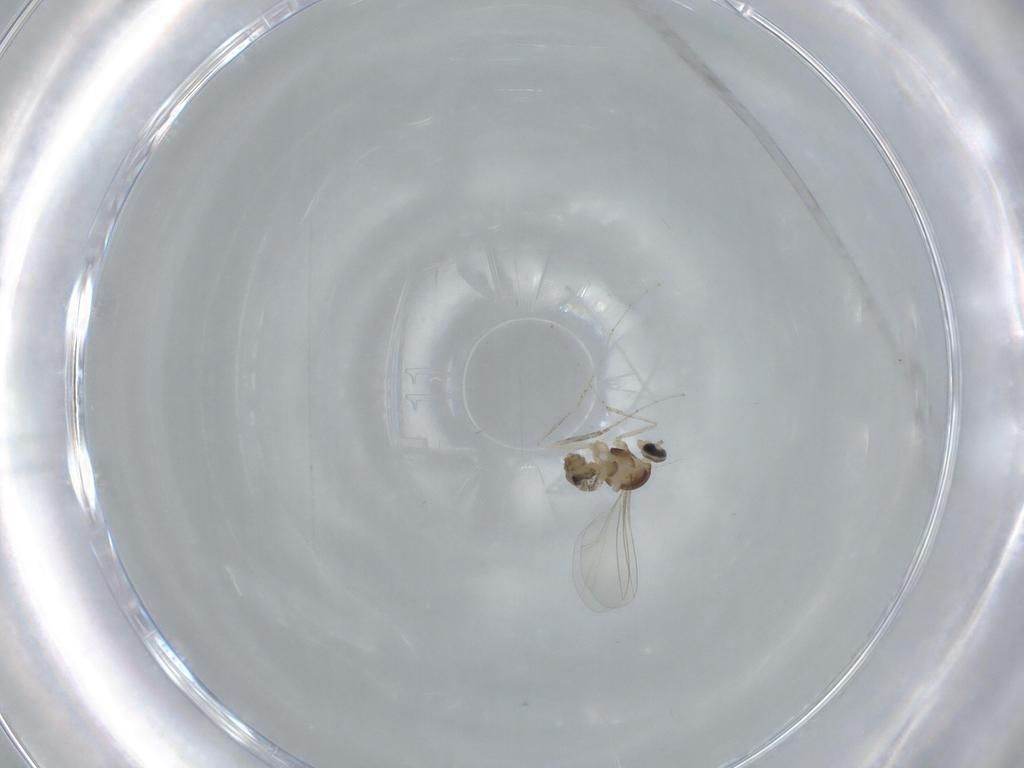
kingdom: Animalia
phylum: Arthropoda
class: Insecta
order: Diptera
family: Cecidomyiidae
